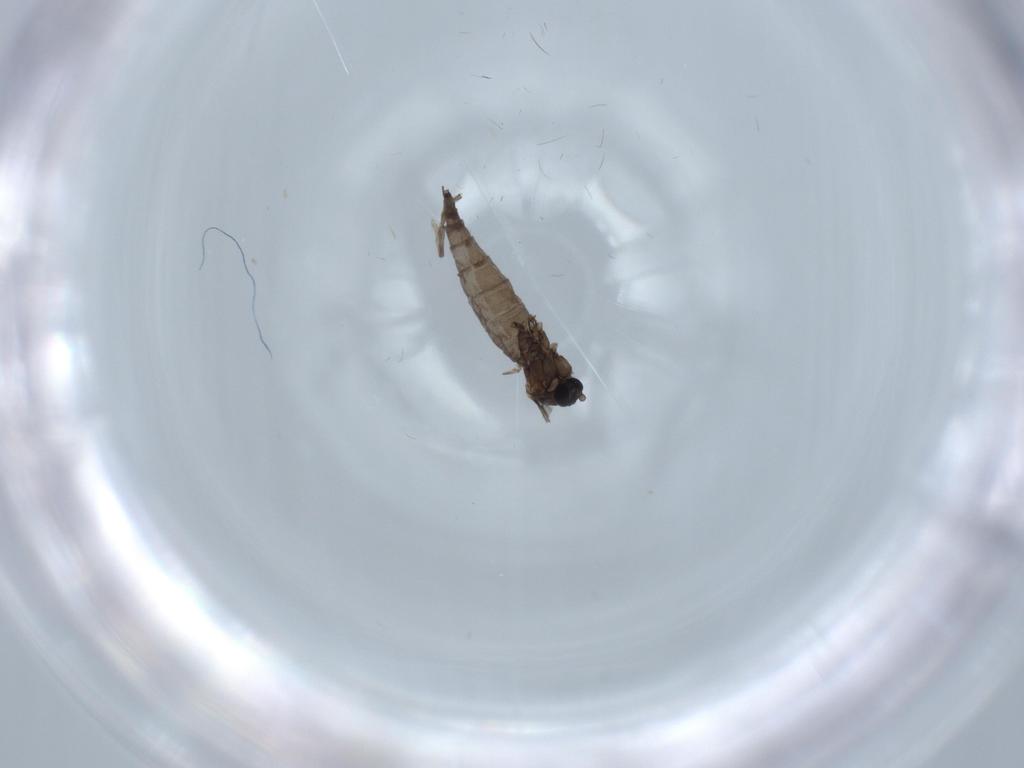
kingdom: Animalia
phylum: Arthropoda
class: Insecta
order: Diptera
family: Sciaridae
